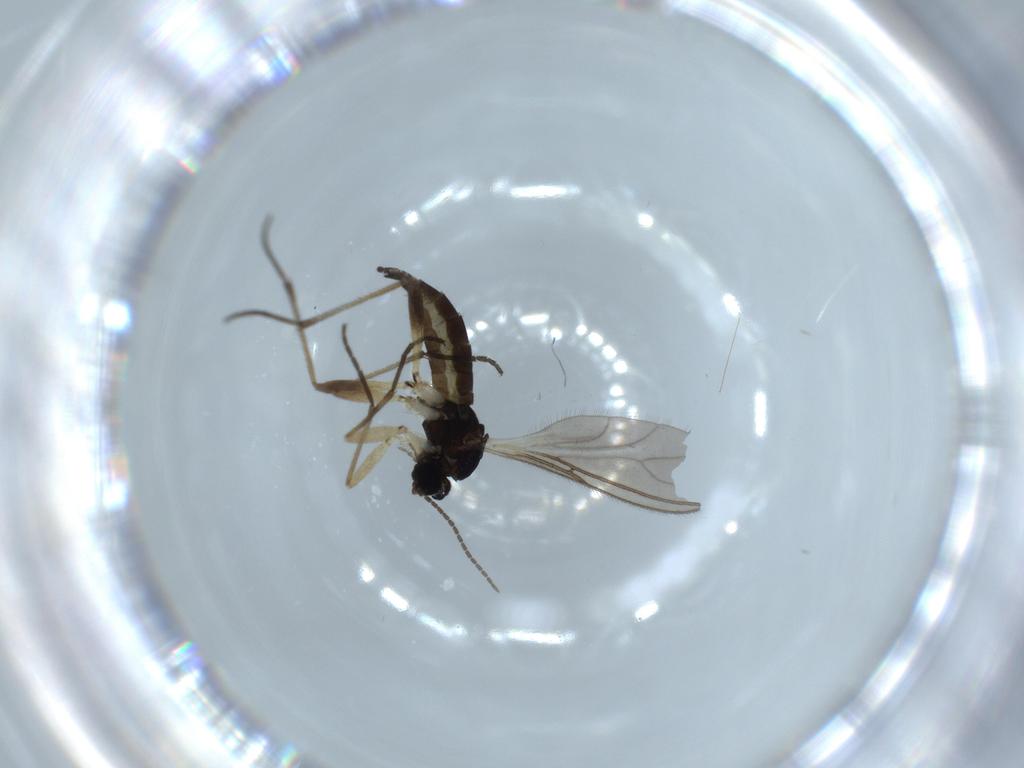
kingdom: Animalia
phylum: Arthropoda
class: Insecta
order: Diptera
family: Sciaridae
